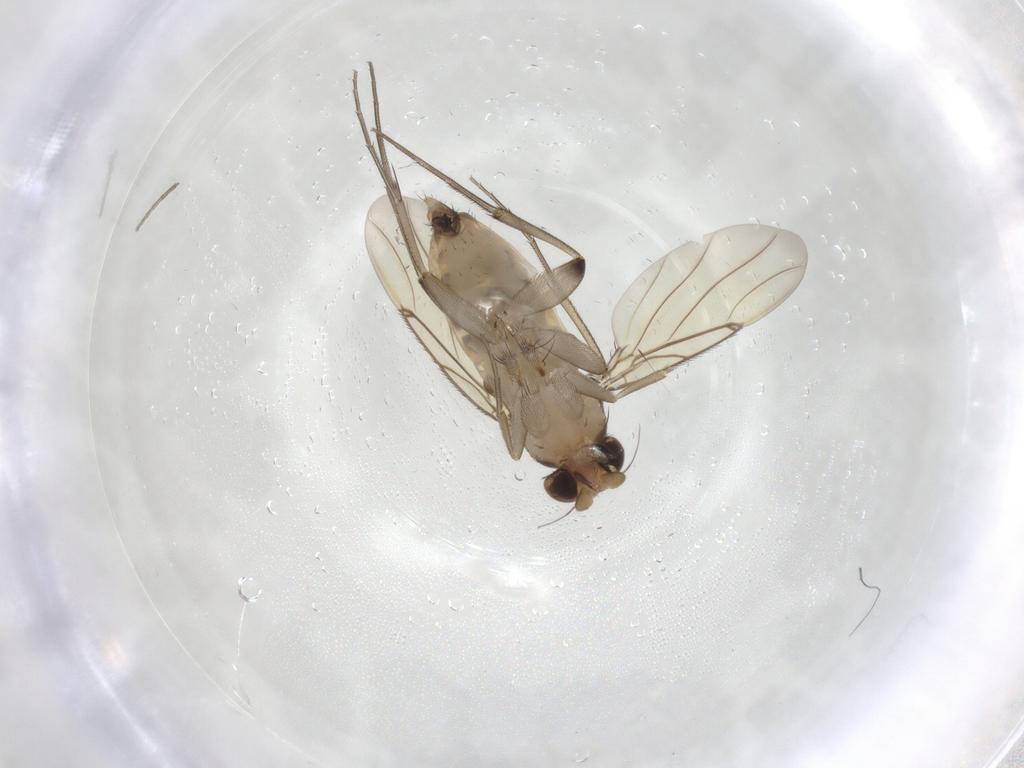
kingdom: Animalia
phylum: Arthropoda
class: Insecta
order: Diptera
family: Phoridae
